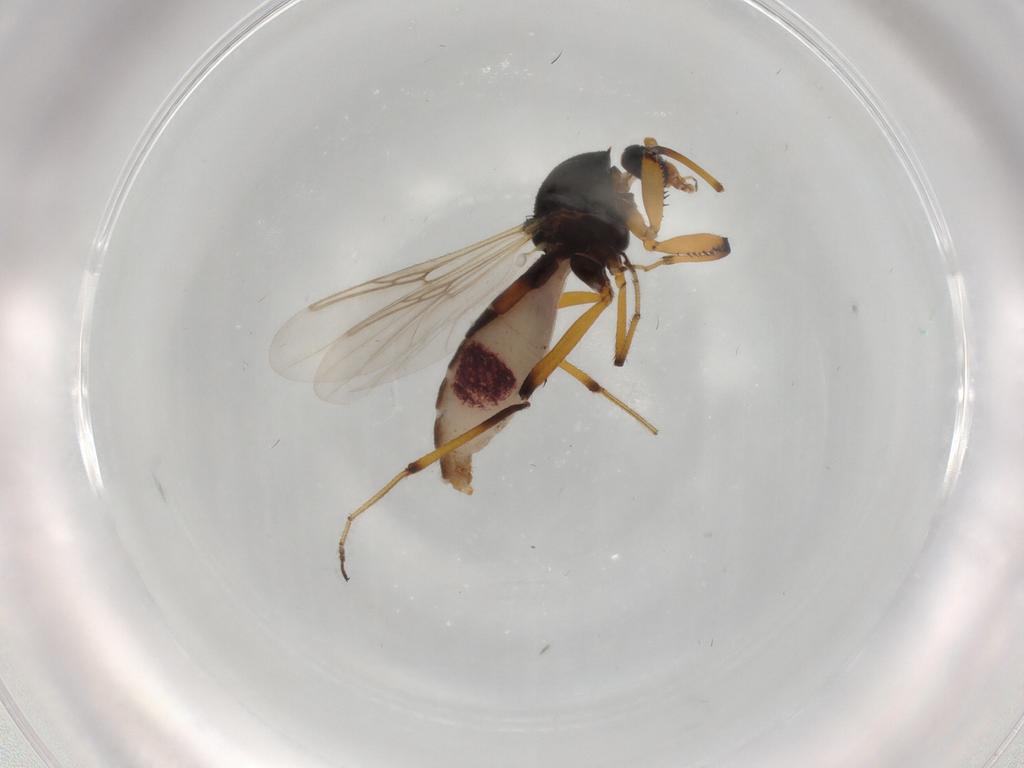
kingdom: Animalia
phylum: Arthropoda
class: Insecta
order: Diptera
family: Ceratopogonidae
